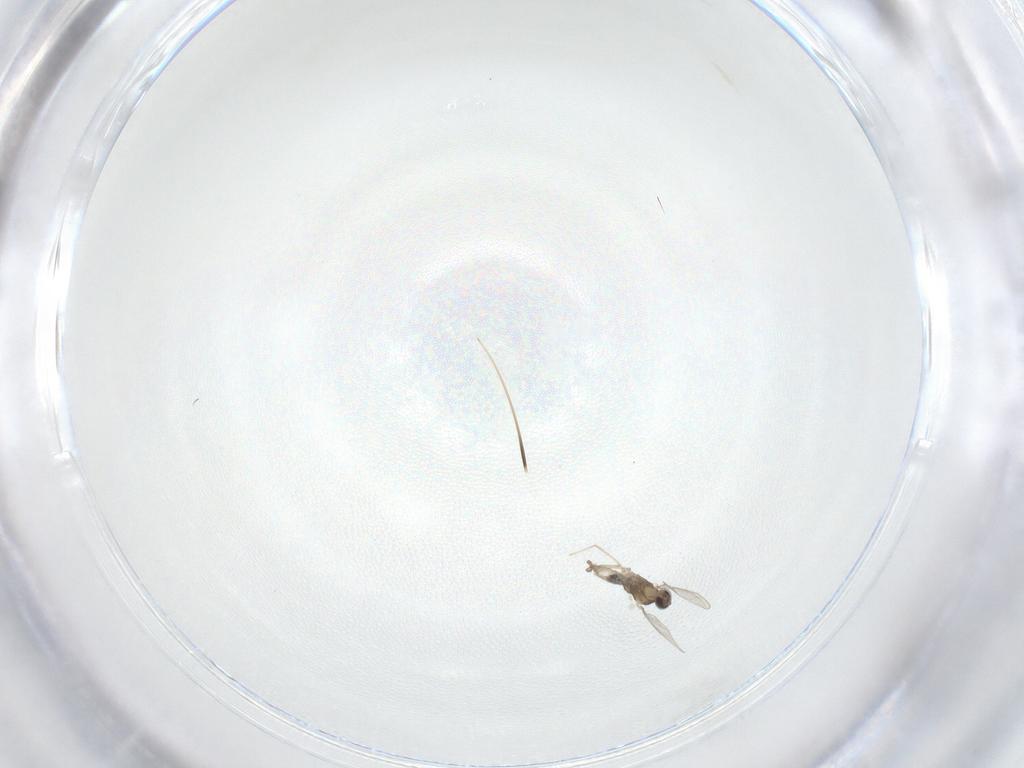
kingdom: Animalia
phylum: Arthropoda
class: Insecta
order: Diptera
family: Cecidomyiidae
